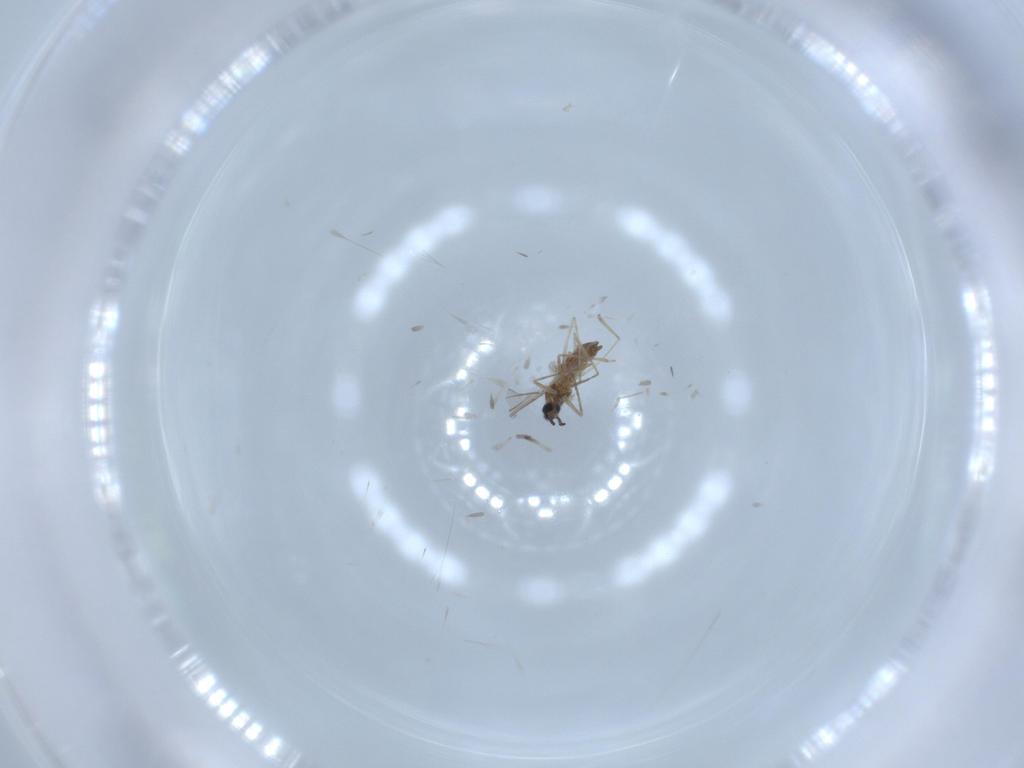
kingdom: Animalia
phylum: Arthropoda
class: Insecta
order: Diptera
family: Cecidomyiidae
